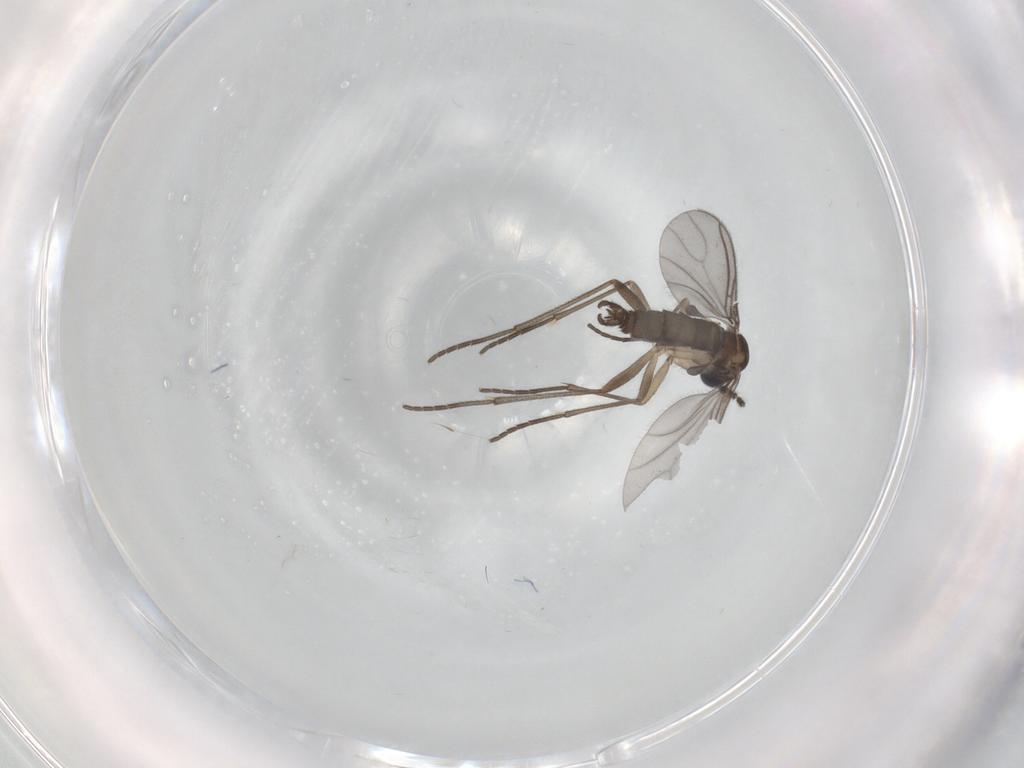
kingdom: Animalia
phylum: Arthropoda
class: Insecta
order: Diptera
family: Sciaridae
